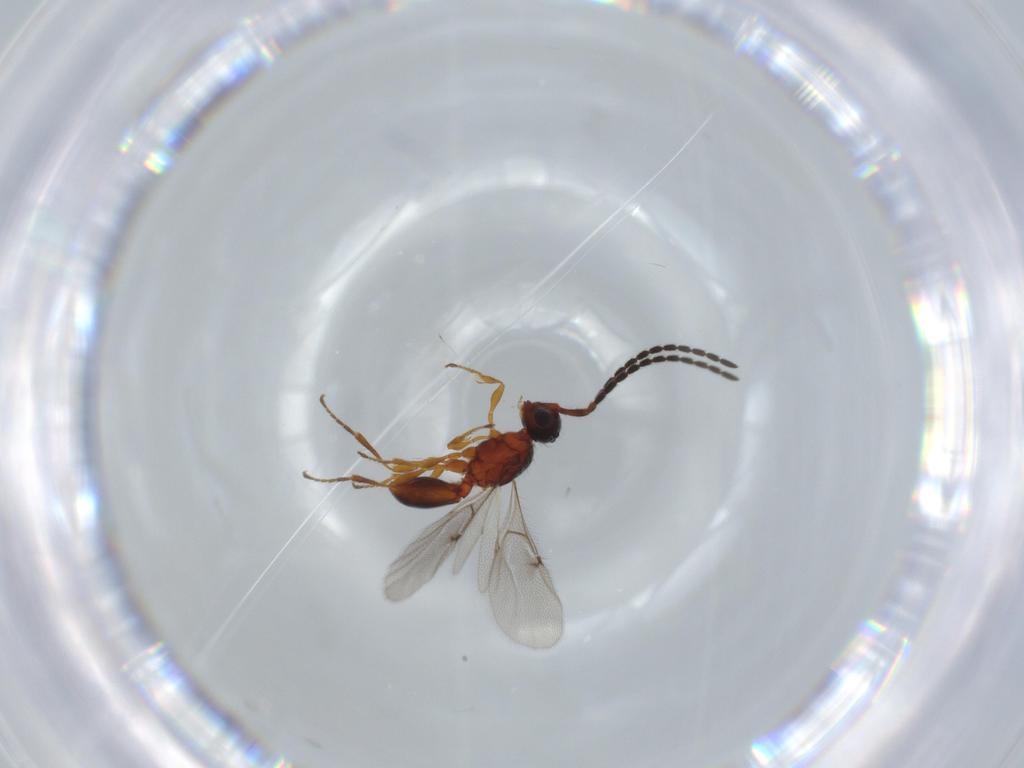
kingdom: Animalia
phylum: Arthropoda
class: Insecta
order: Hymenoptera
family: Diapriidae
